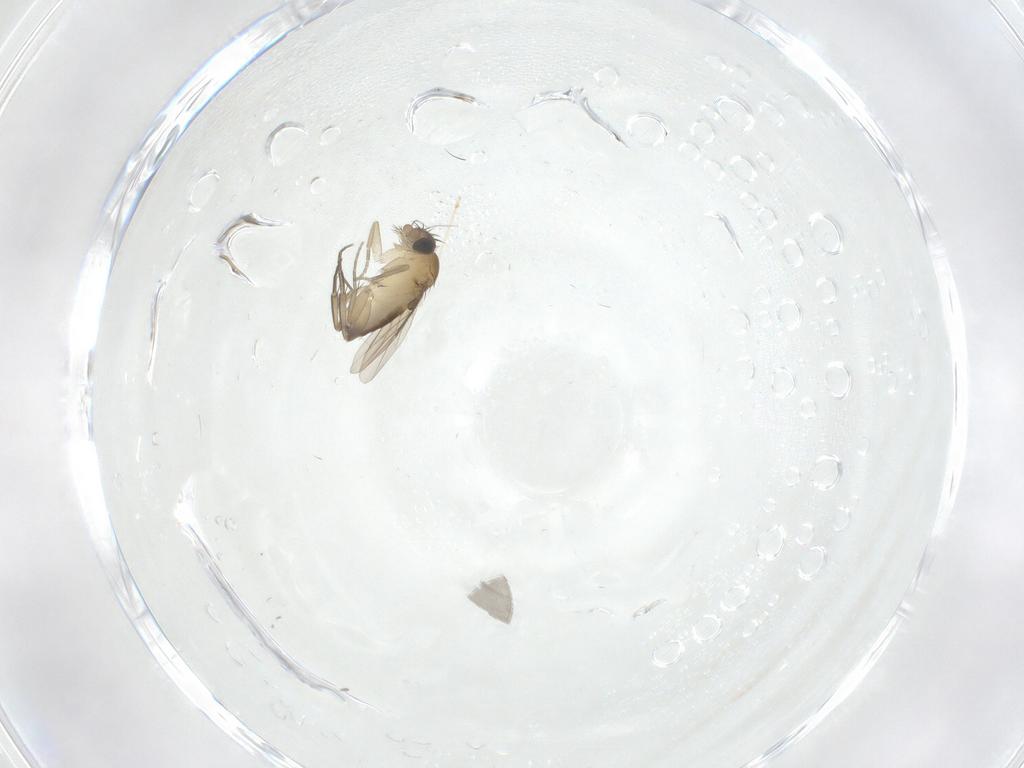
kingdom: Animalia
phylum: Arthropoda
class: Insecta
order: Diptera
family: Phoridae
